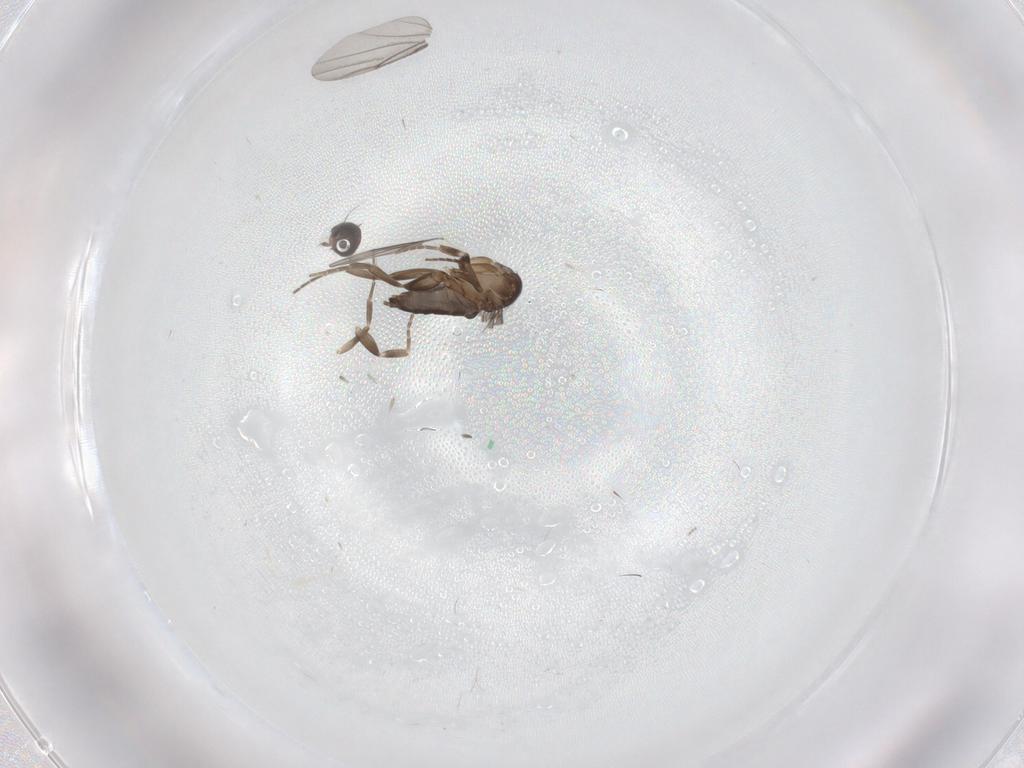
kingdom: Animalia
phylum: Arthropoda
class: Insecta
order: Diptera
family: Phoridae
